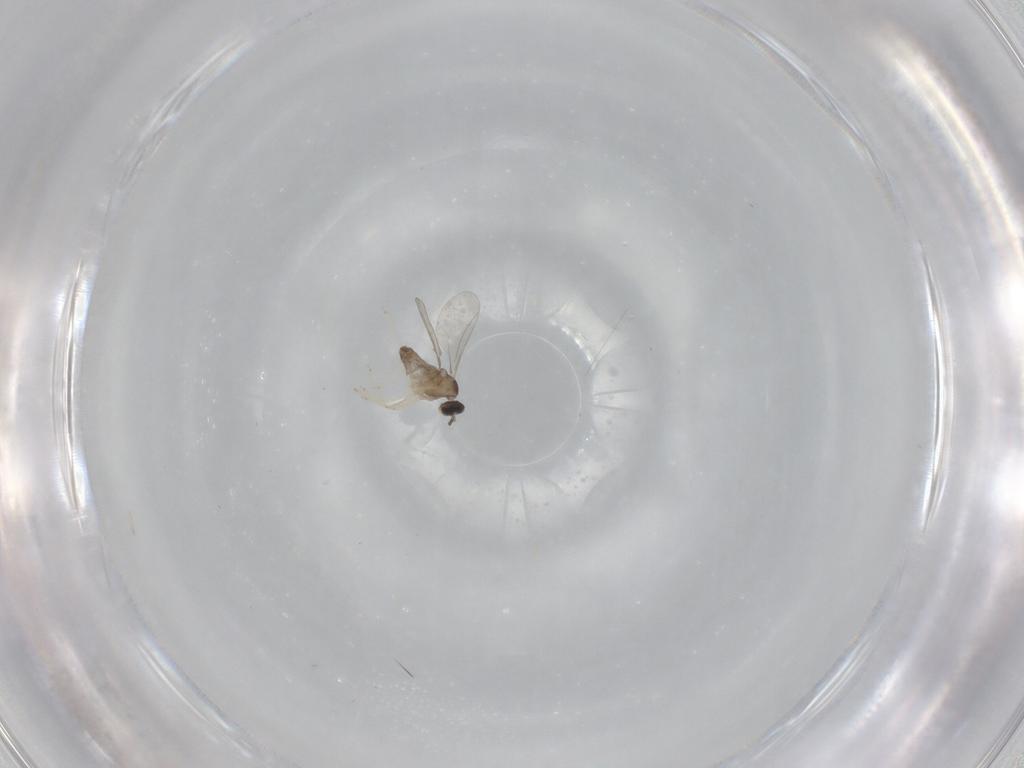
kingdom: Animalia
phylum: Arthropoda
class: Insecta
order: Diptera
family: Cecidomyiidae
